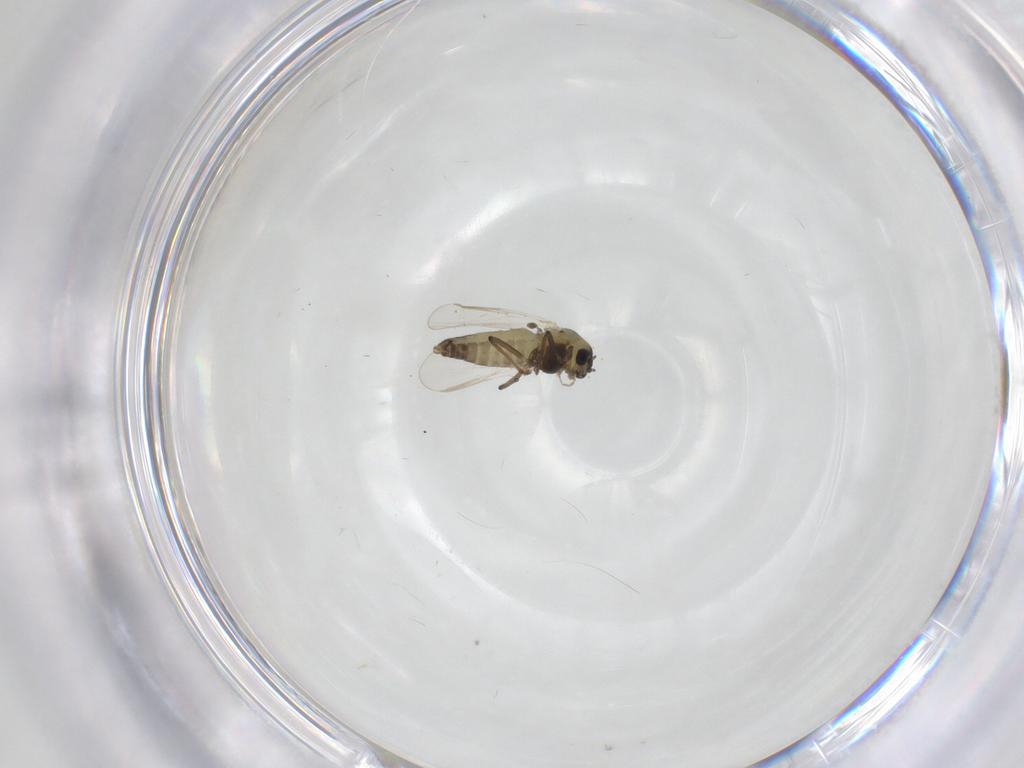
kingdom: Animalia
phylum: Arthropoda
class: Insecta
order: Diptera
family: Chironomidae
